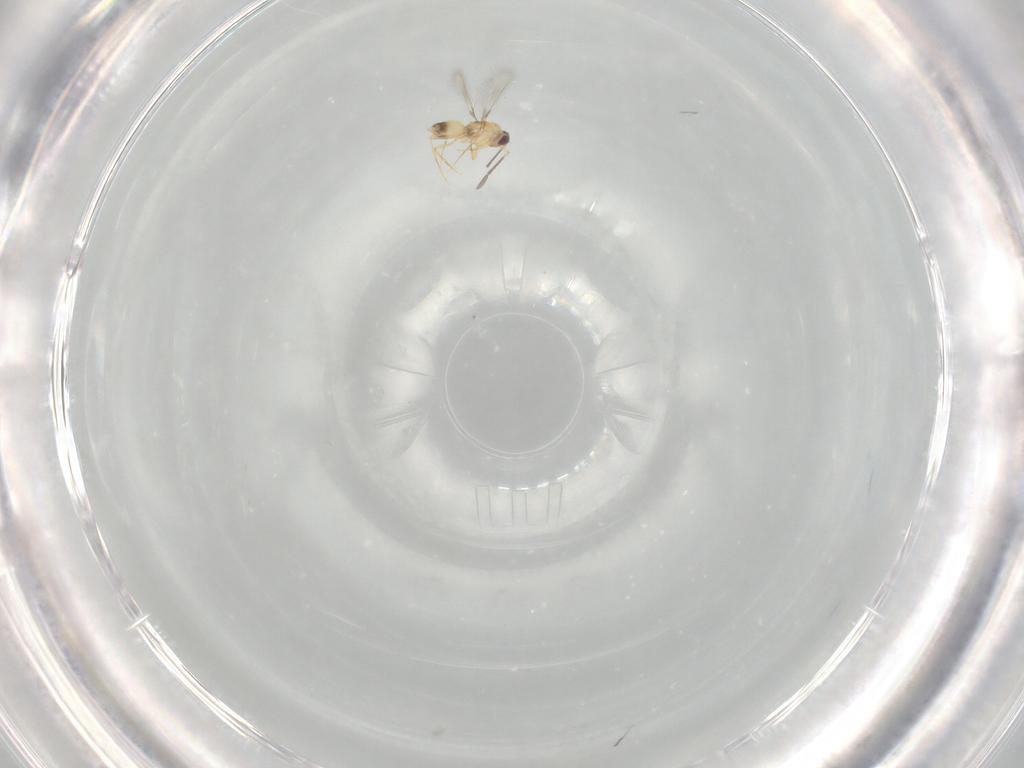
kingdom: Animalia
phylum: Arthropoda
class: Insecta
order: Hymenoptera
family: Mymaridae
